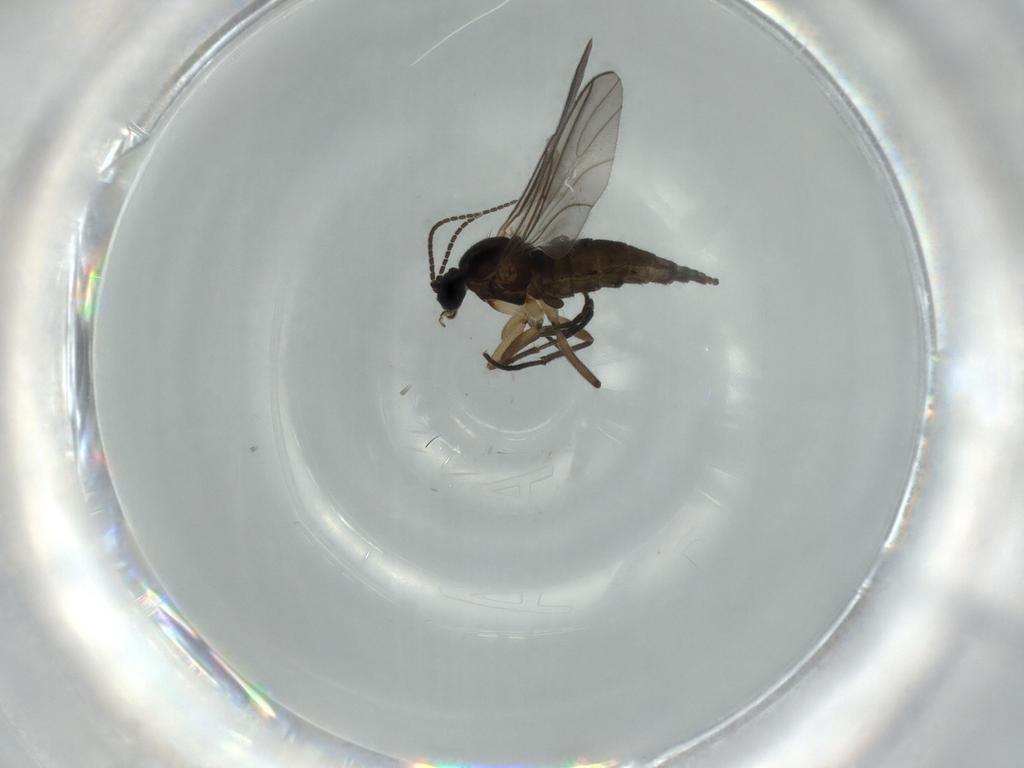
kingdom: Animalia
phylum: Arthropoda
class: Insecta
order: Diptera
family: Sciaridae
